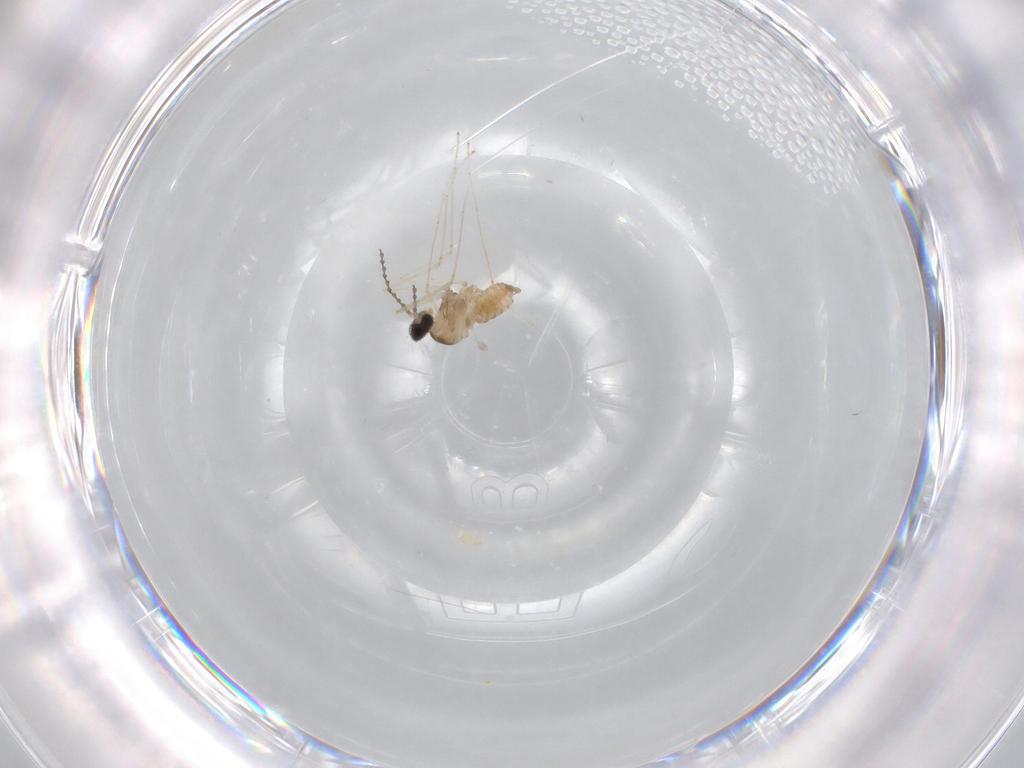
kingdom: Animalia
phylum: Arthropoda
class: Insecta
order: Diptera
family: Cecidomyiidae
